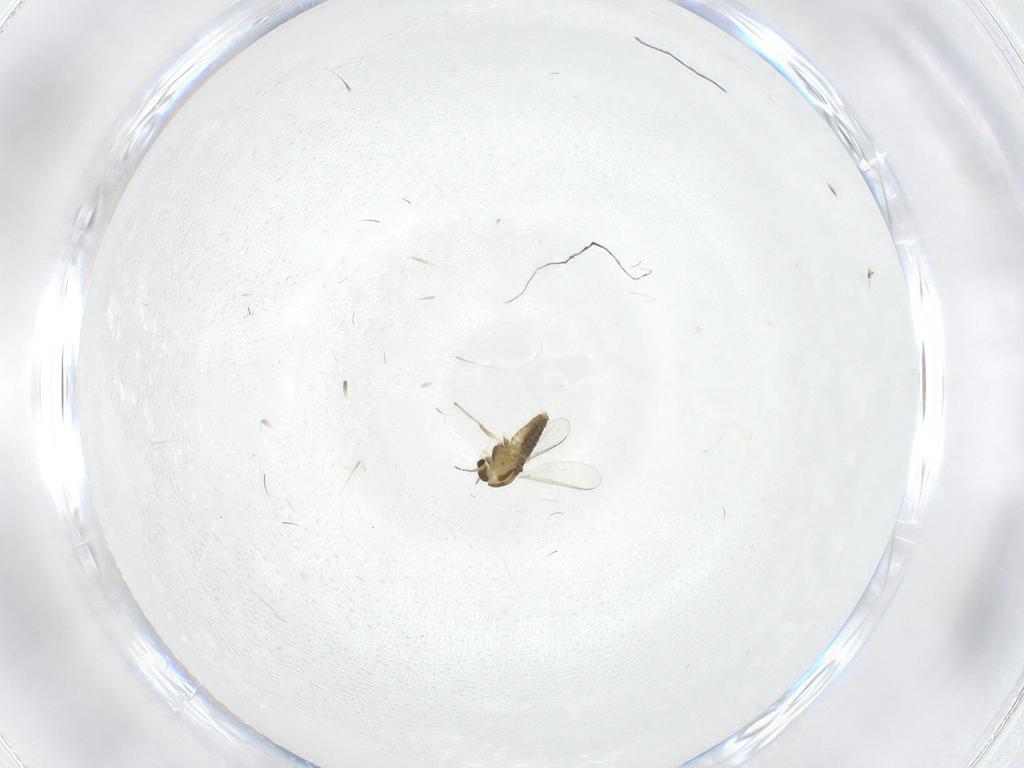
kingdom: Animalia
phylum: Arthropoda
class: Insecta
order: Diptera
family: Chironomidae
